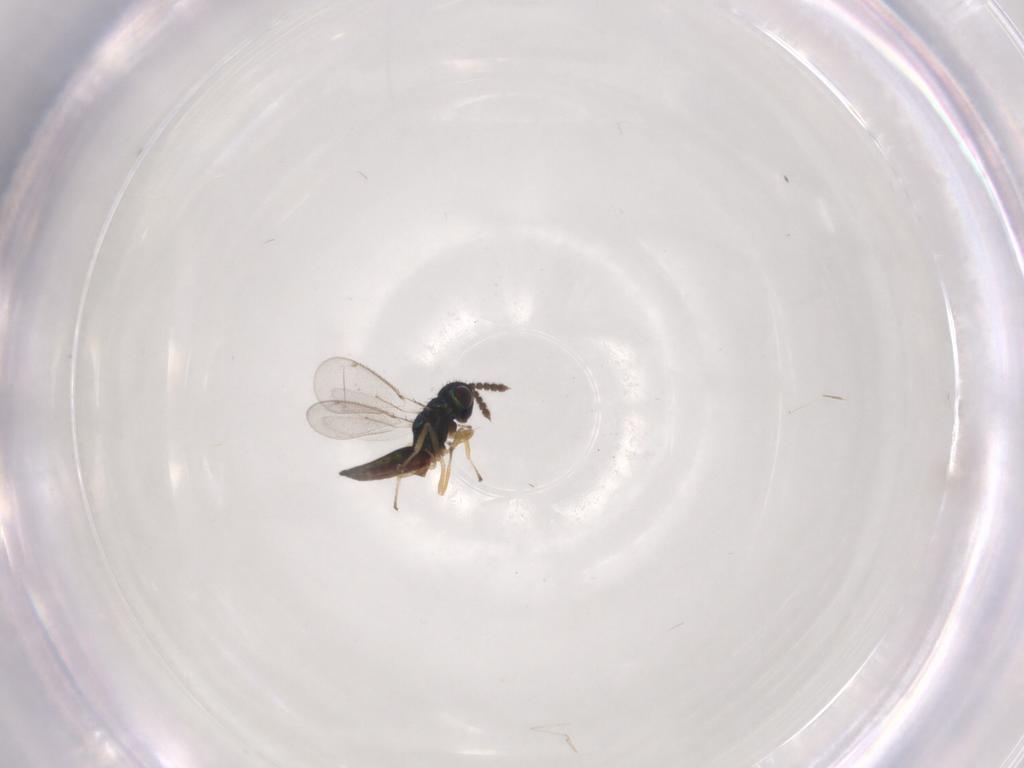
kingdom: Animalia
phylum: Arthropoda
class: Insecta
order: Hymenoptera
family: Eulophidae
